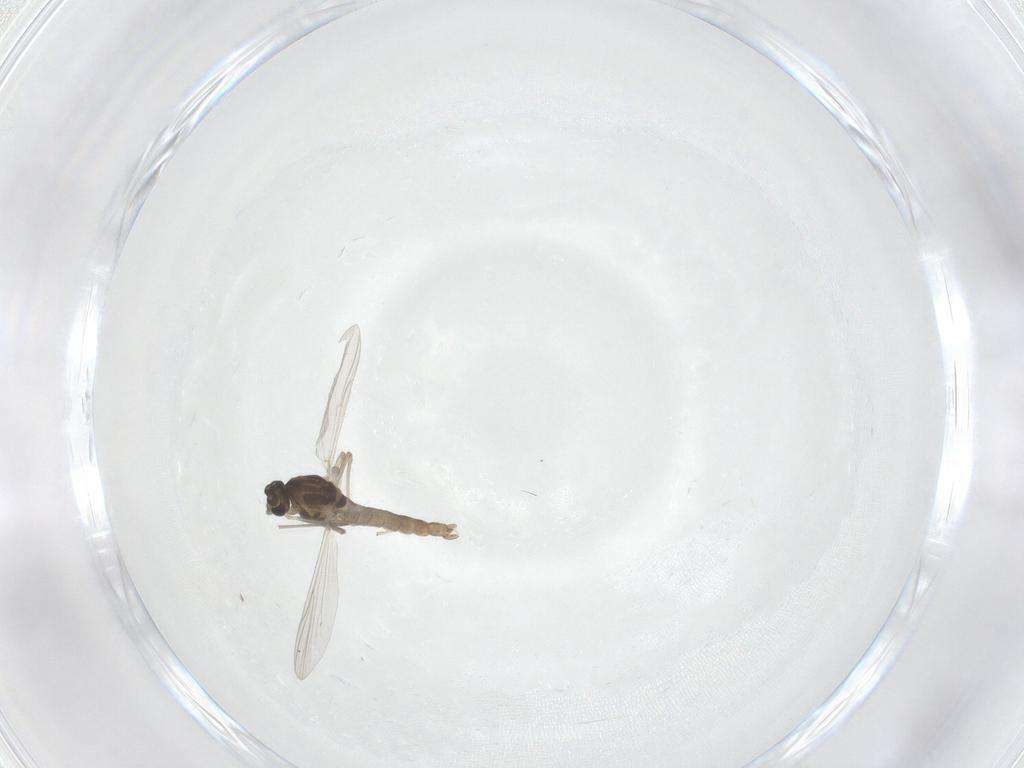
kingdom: Animalia
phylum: Arthropoda
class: Insecta
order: Diptera
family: Chironomidae
